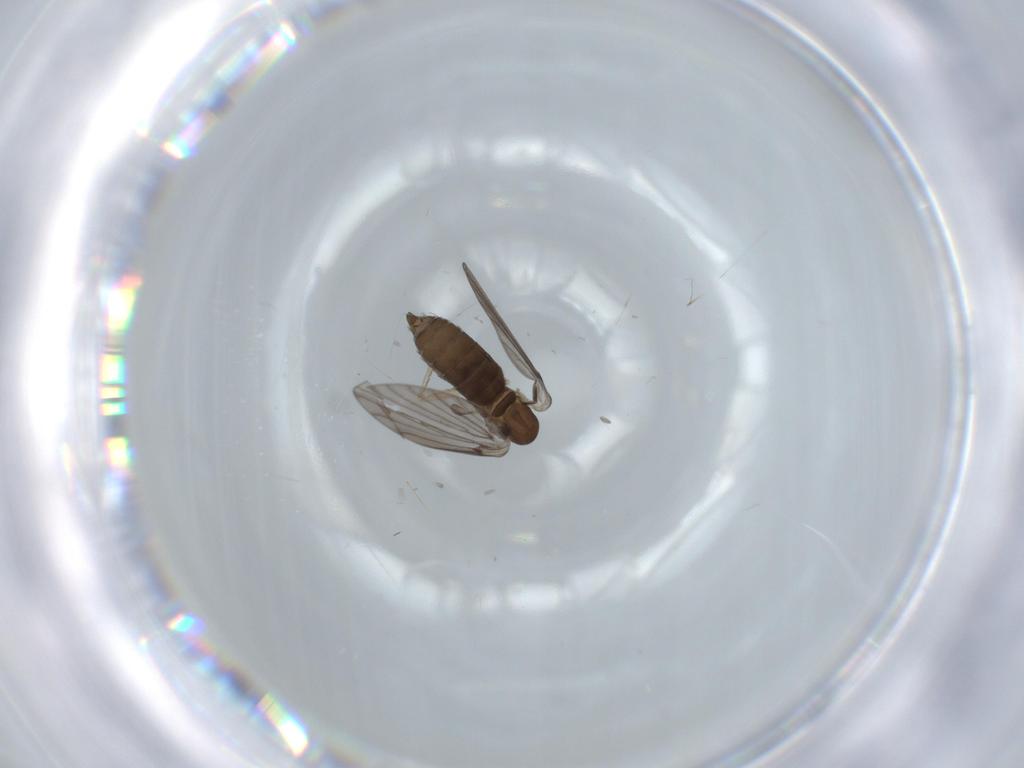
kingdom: Animalia
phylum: Arthropoda
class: Insecta
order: Diptera
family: Psychodidae
